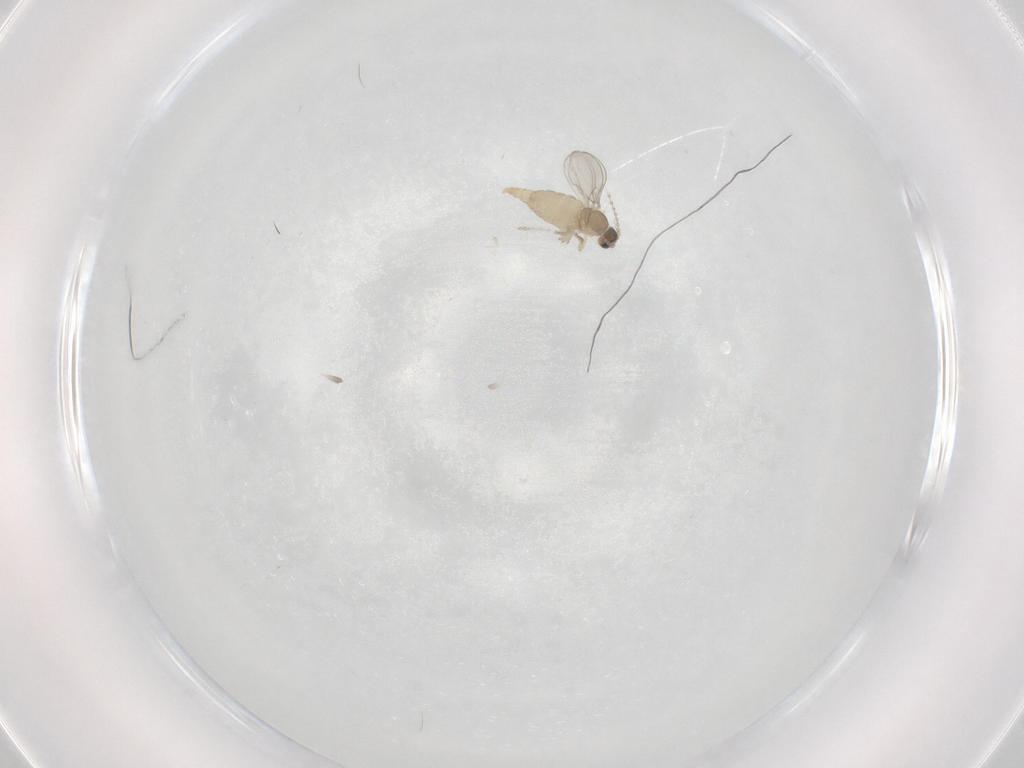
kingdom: Animalia
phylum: Arthropoda
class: Insecta
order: Diptera
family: Cecidomyiidae
